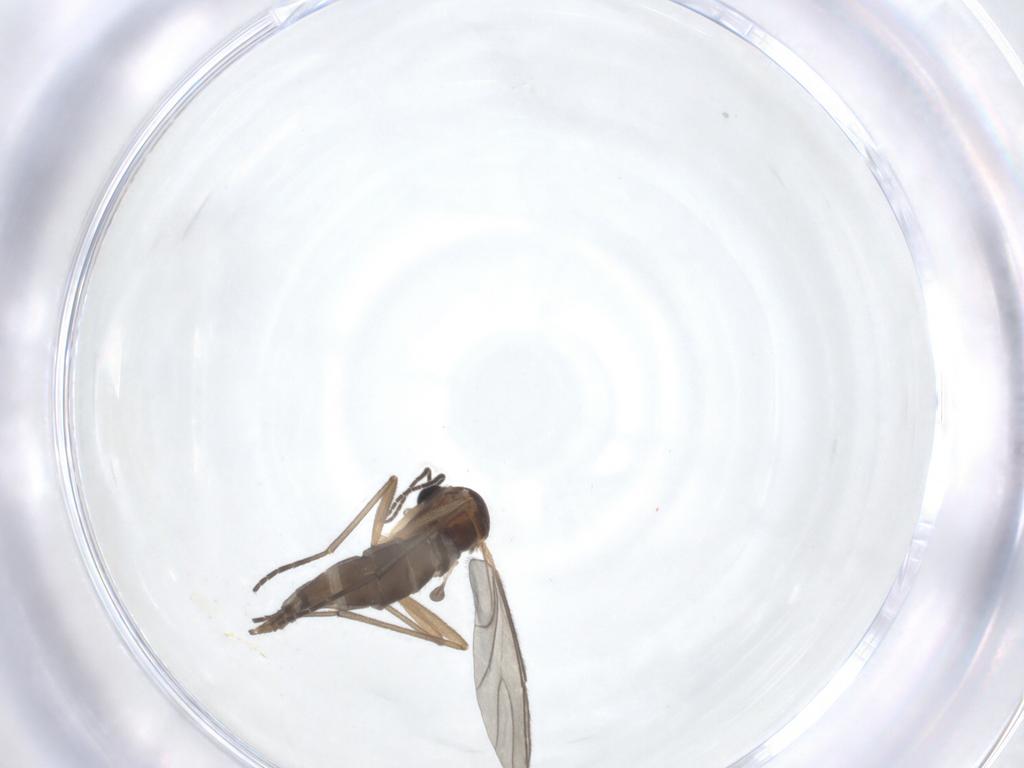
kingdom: Animalia
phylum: Arthropoda
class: Insecta
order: Diptera
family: Sciaridae
